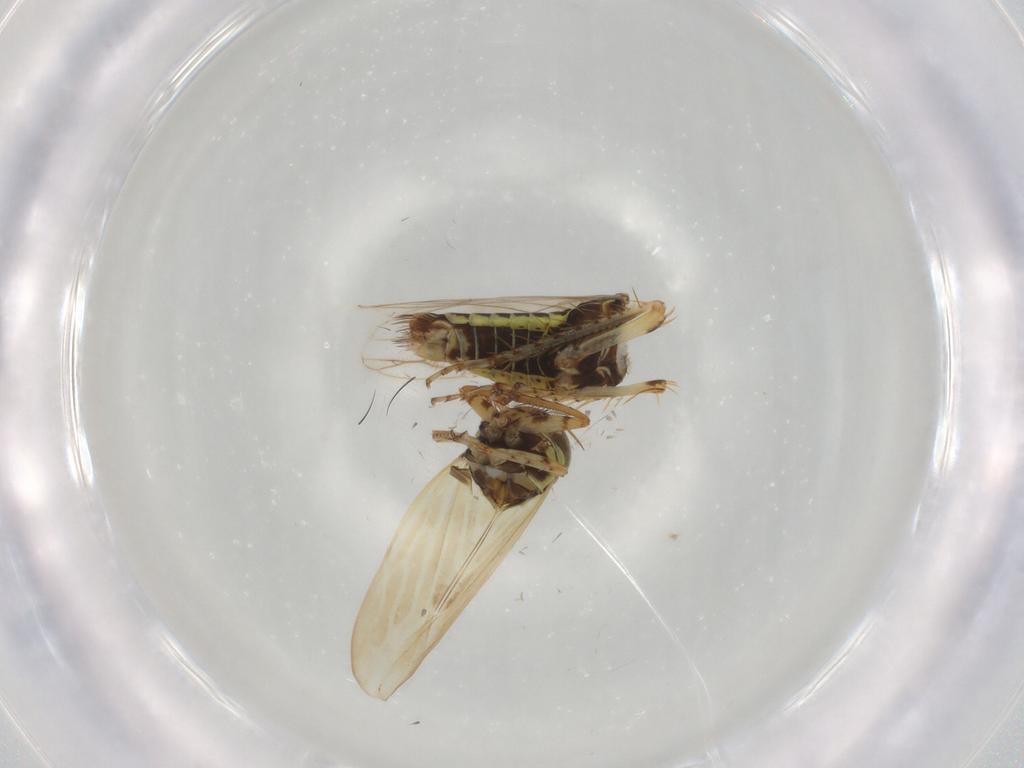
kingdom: Animalia
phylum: Arthropoda
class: Insecta
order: Hemiptera
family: Cicadellidae
